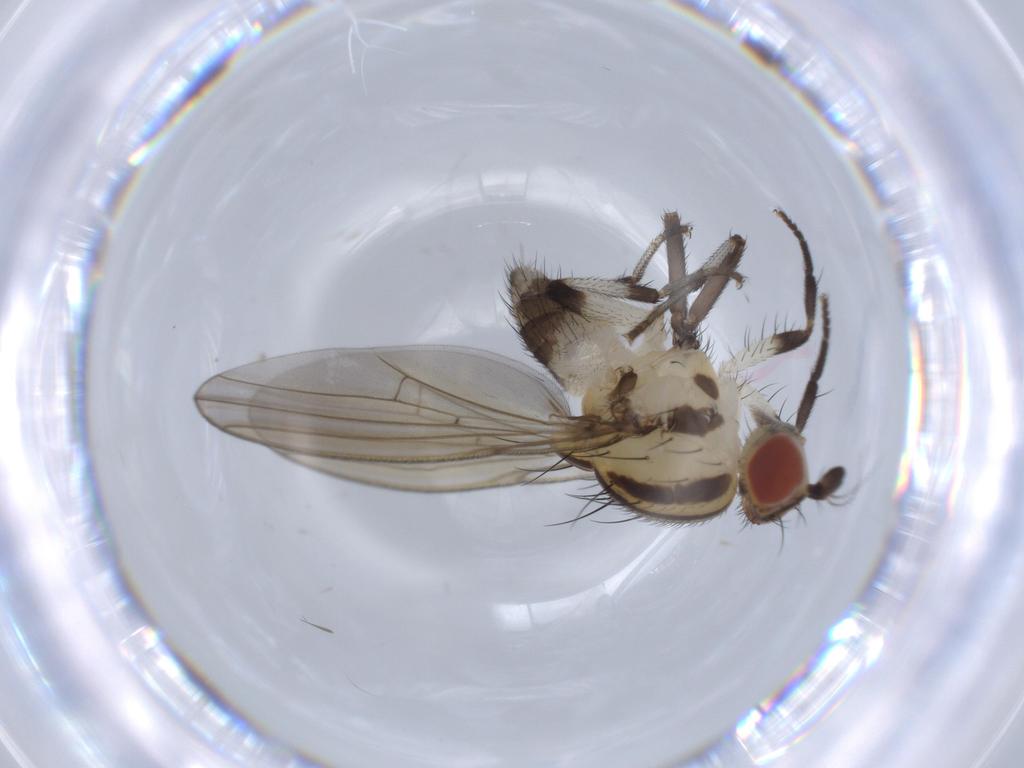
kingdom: Animalia
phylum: Arthropoda
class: Insecta
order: Diptera
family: Lauxaniidae
